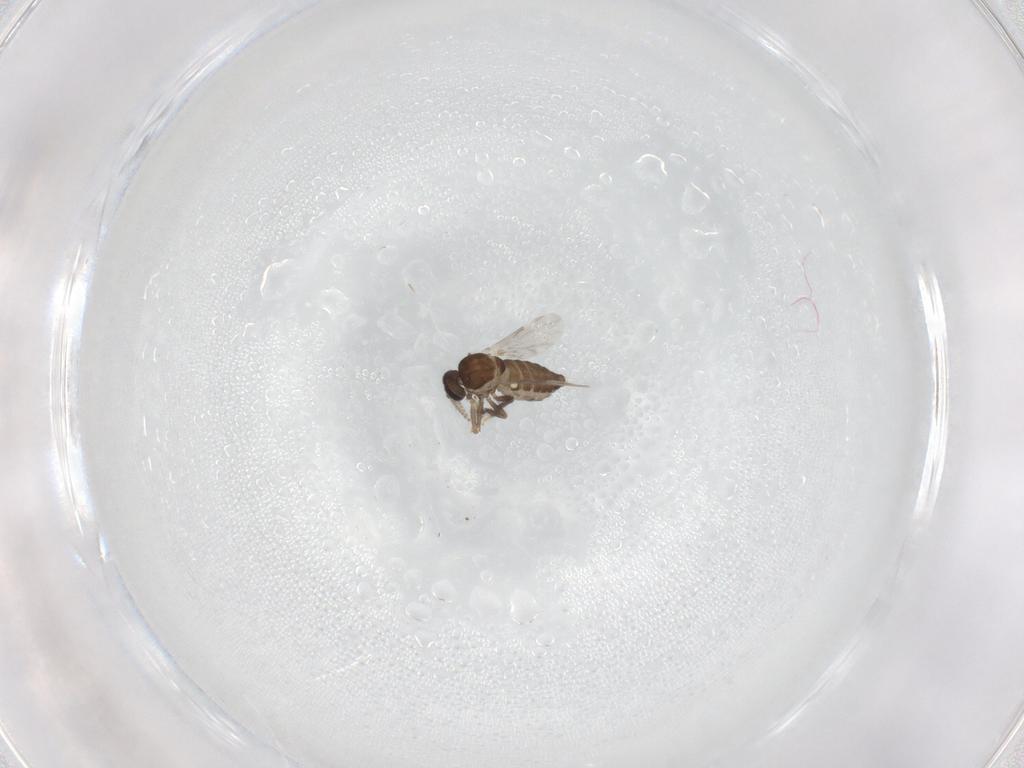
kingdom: Animalia
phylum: Arthropoda
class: Insecta
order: Diptera
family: Ceratopogonidae
